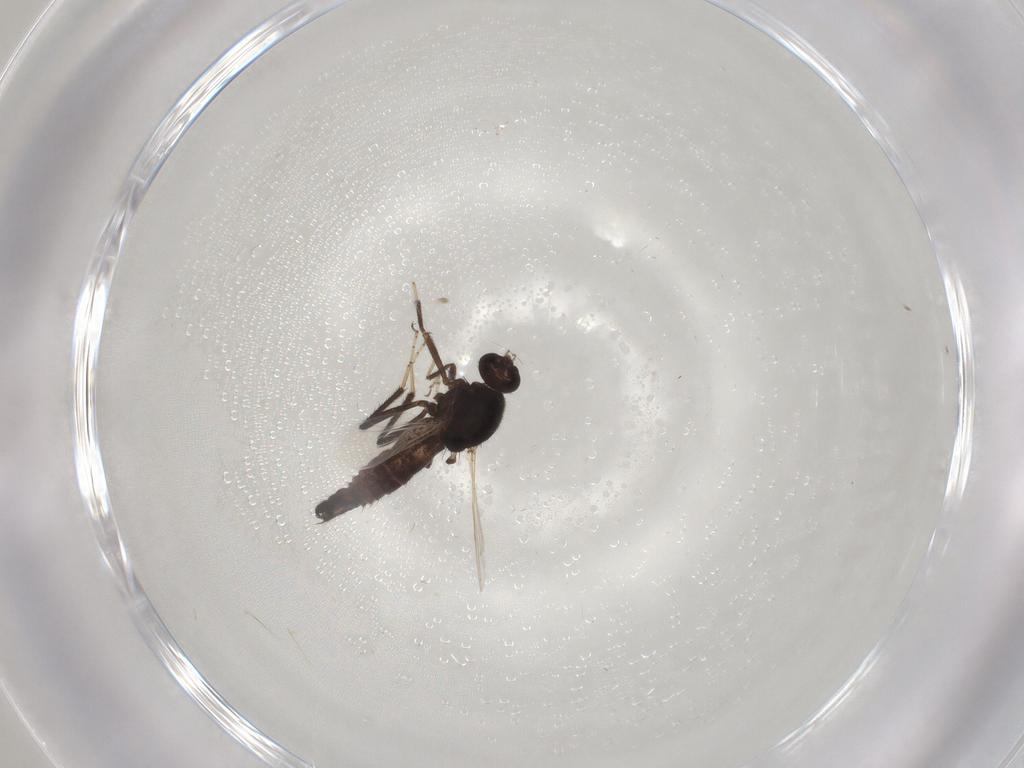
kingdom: Animalia
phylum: Arthropoda
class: Insecta
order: Diptera
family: Ceratopogonidae
